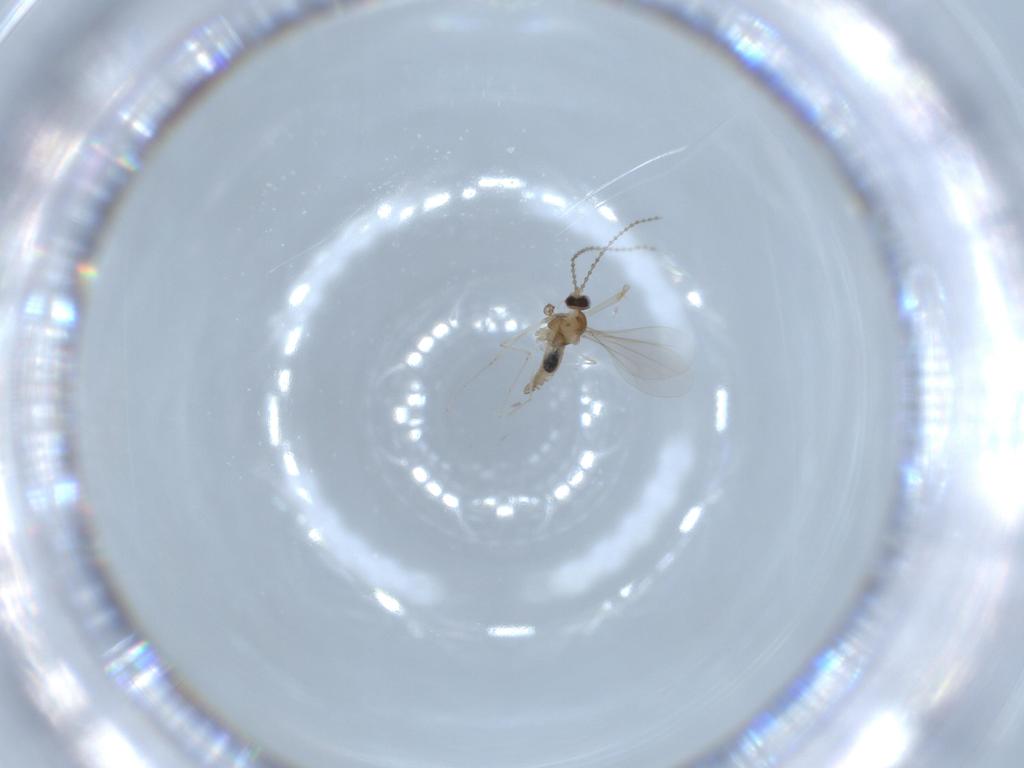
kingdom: Animalia
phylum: Arthropoda
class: Insecta
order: Diptera
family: Cecidomyiidae
